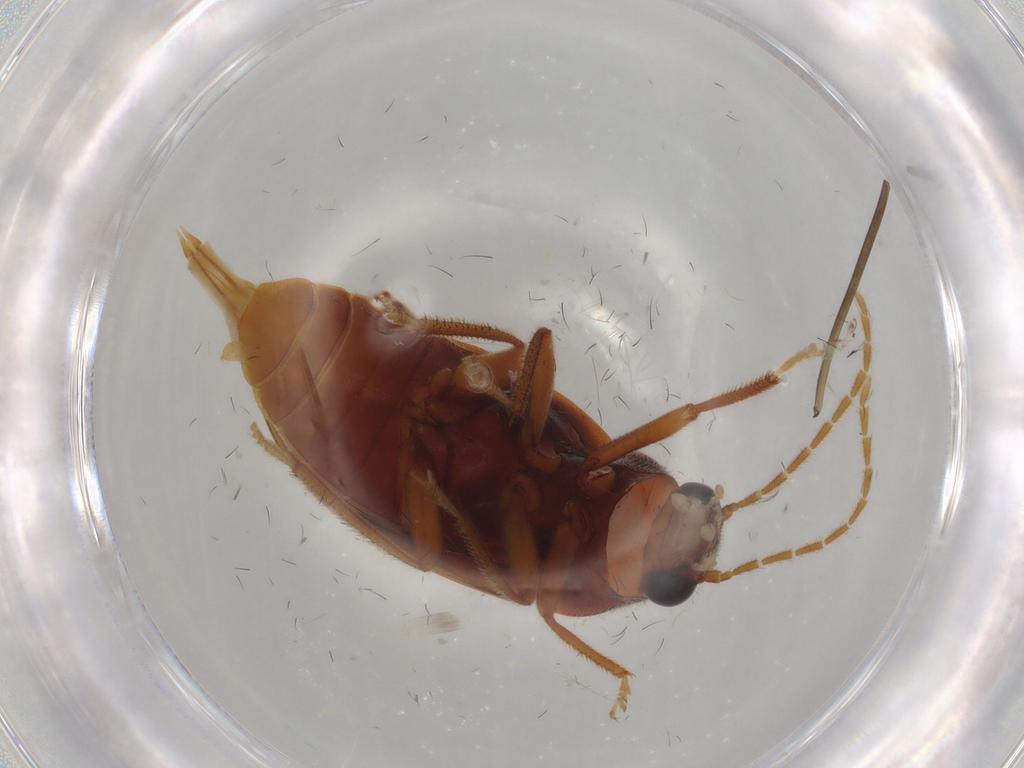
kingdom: Animalia
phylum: Arthropoda
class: Insecta
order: Coleoptera
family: Ptilodactylidae
